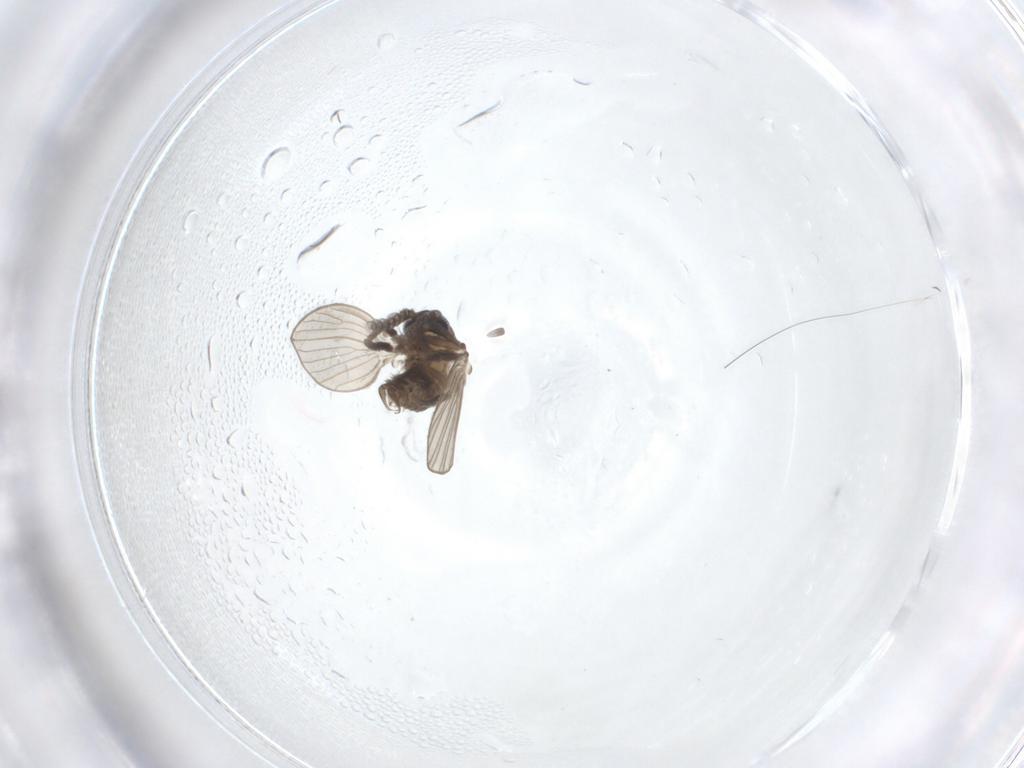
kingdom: Animalia
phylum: Arthropoda
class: Insecta
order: Diptera
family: Psychodidae
